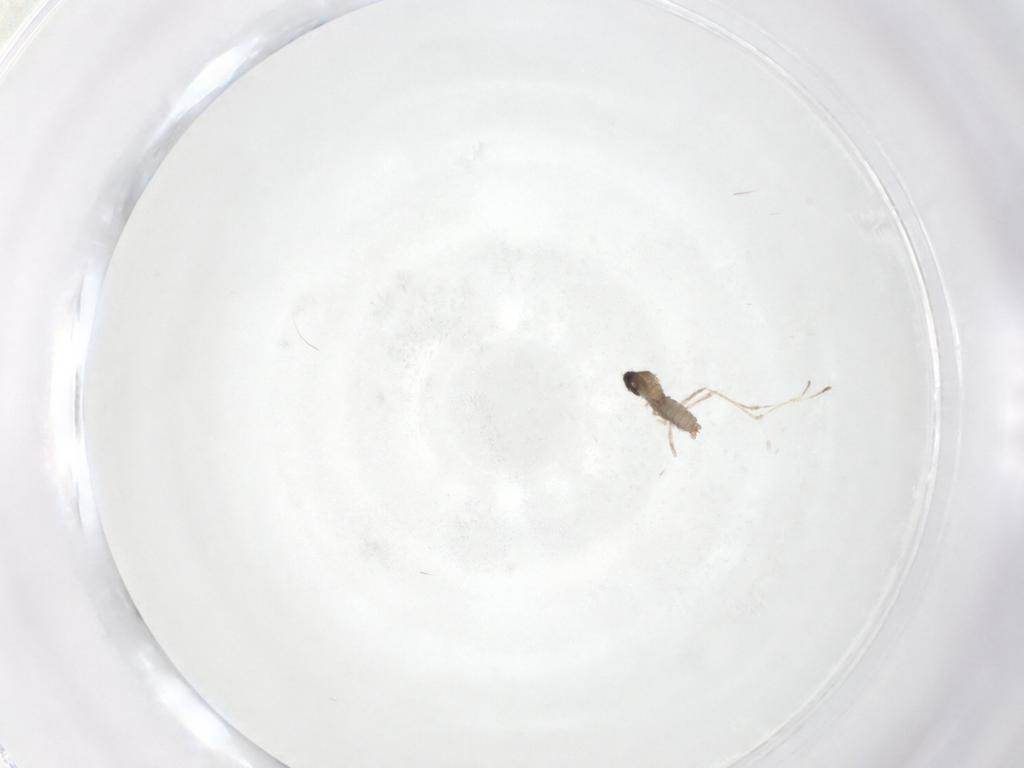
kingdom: Animalia
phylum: Arthropoda
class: Insecta
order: Diptera
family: Cecidomyiidae
